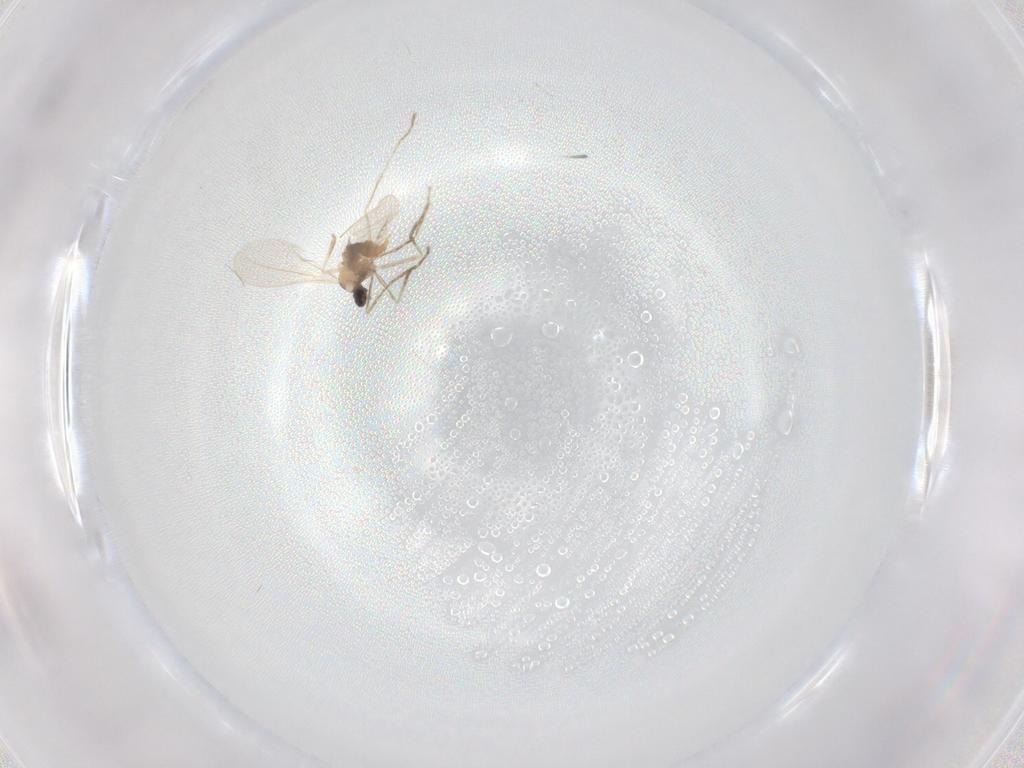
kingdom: Animalia
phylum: Arthropoda
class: Insecta
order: Diptera
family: Cecidomyiidae
